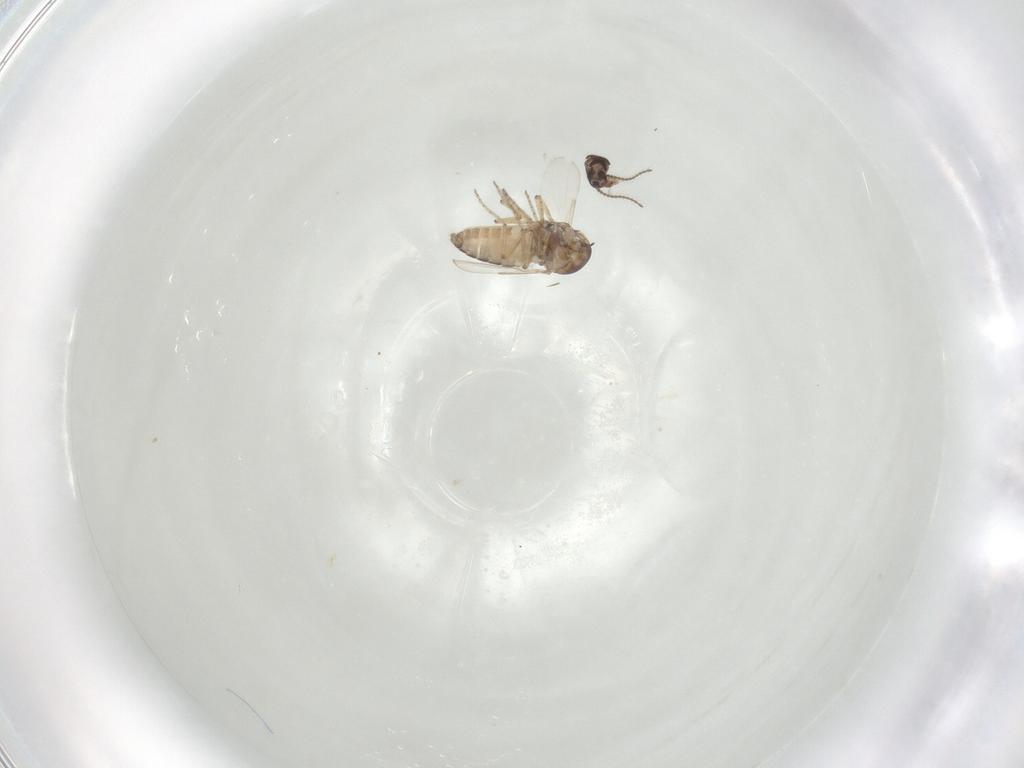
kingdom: Animalia
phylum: Arthropoda
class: Insecta
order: Diptera
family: Ceratopogonidae
